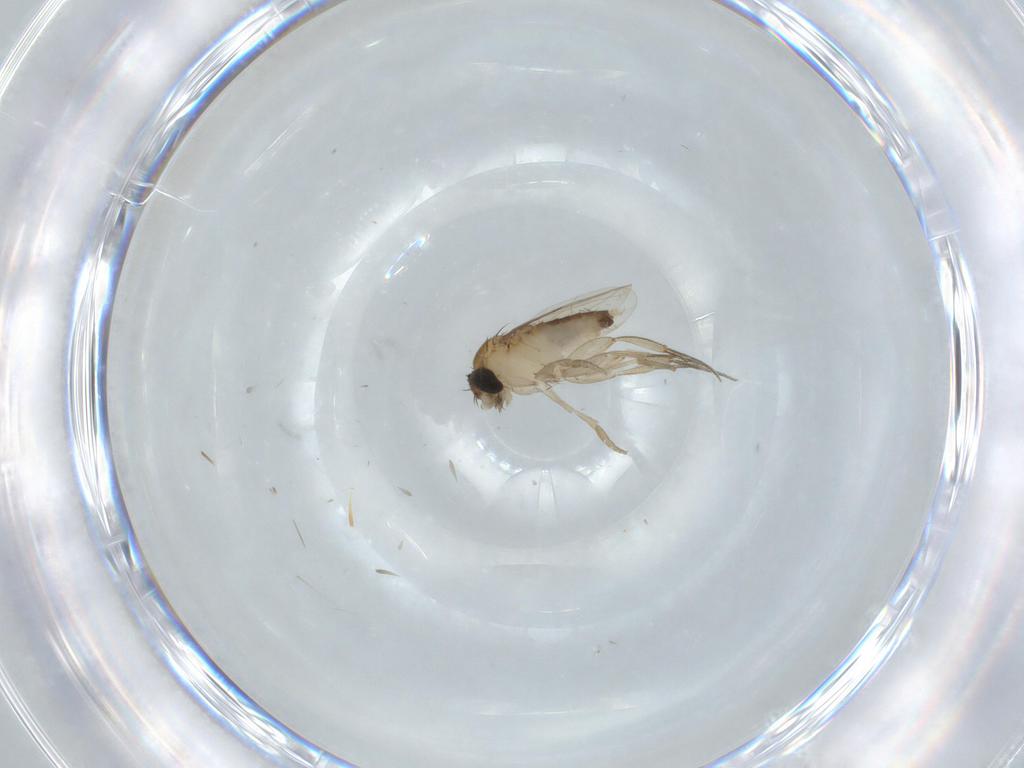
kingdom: Animalia
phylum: Arthropoda
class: Insecta
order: Diptera
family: Phoridae
